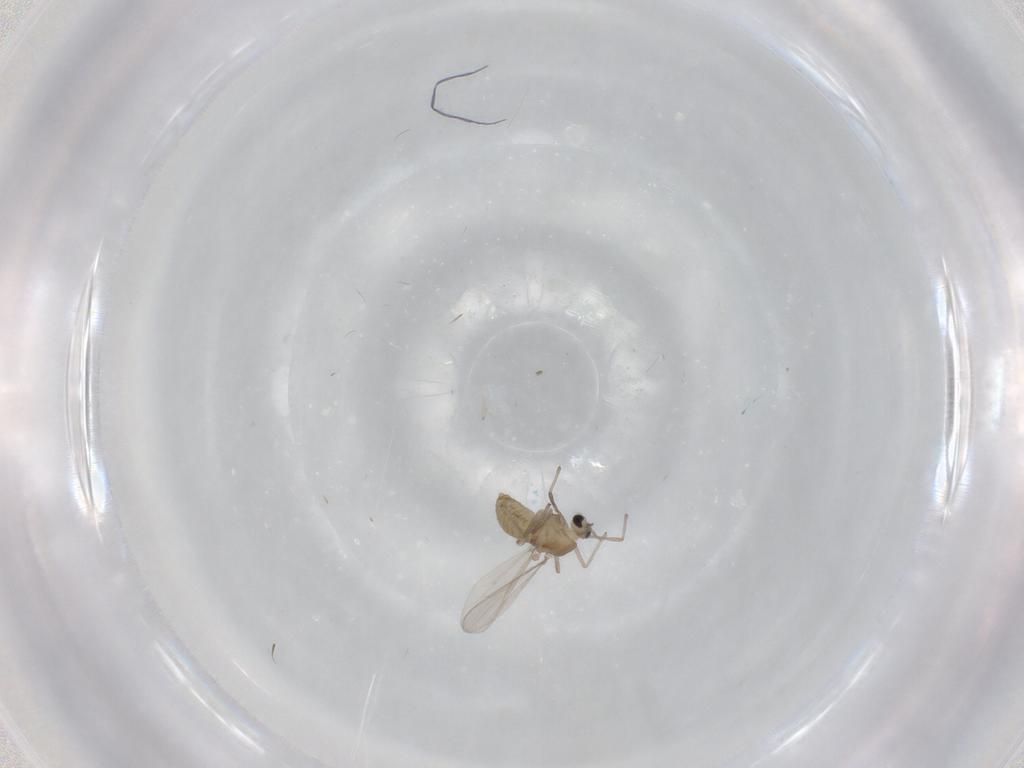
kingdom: Animalia
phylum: Arthropoda
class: Insecta
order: Diptera
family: Chironomidae
